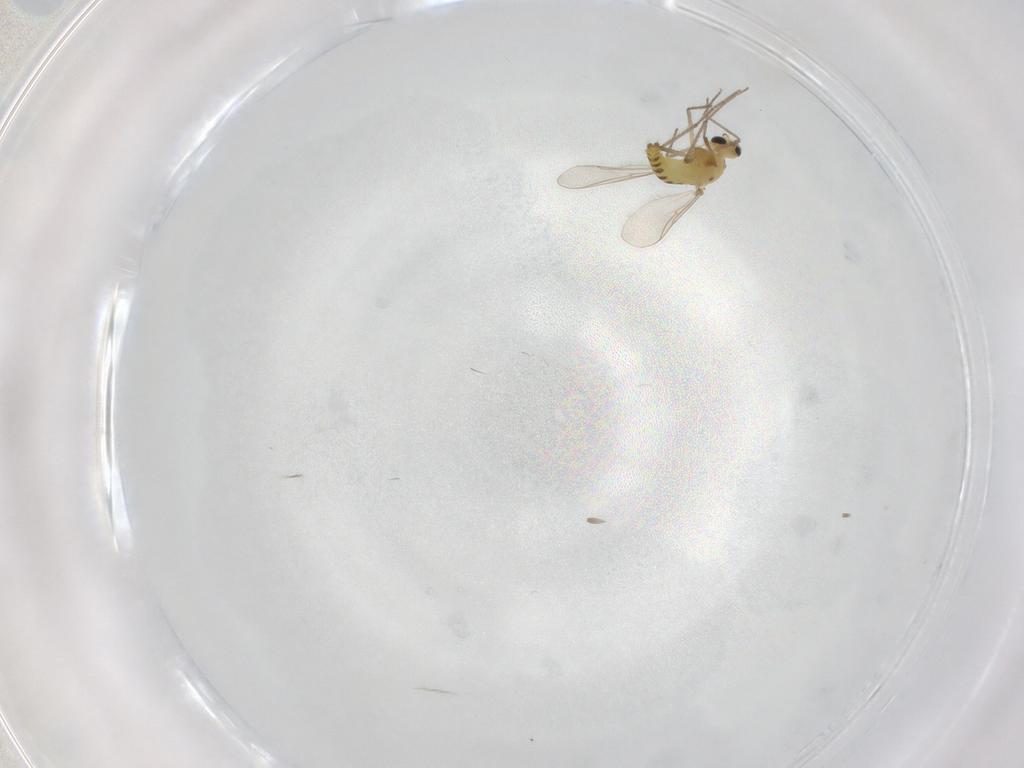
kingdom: Animalia
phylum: Arthropoda
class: Insecta
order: Diptera
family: Chironomidae
